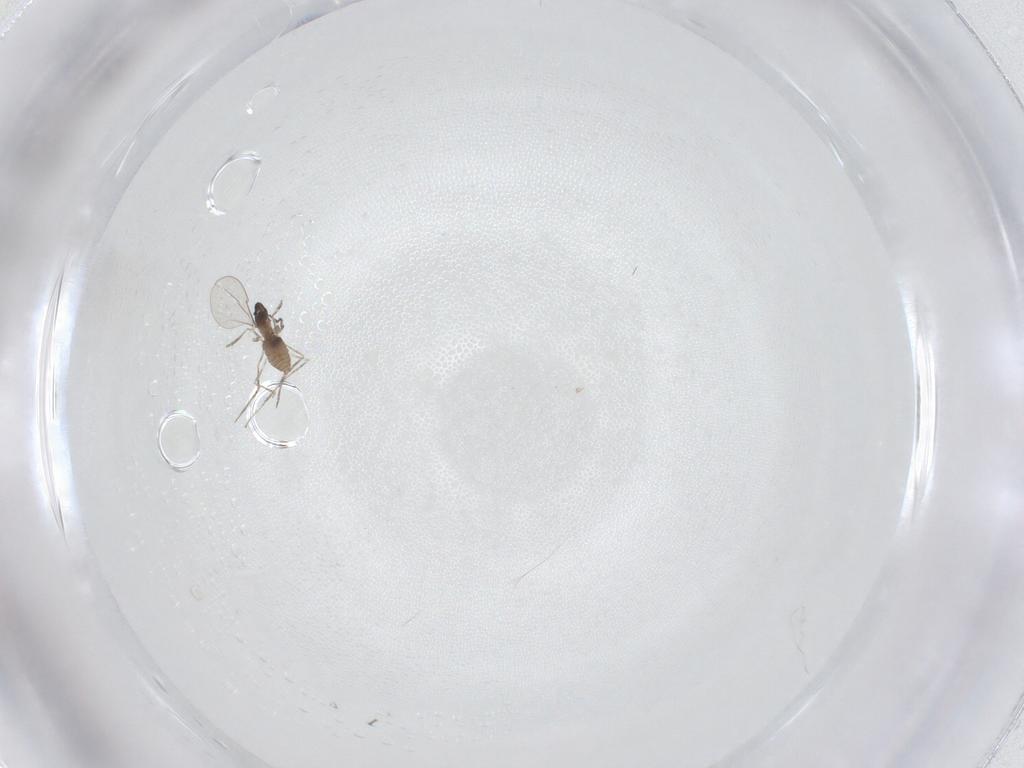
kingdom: Animalia
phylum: Arthropoda
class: Insecta
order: Diptera
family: Cecidomyiidae
